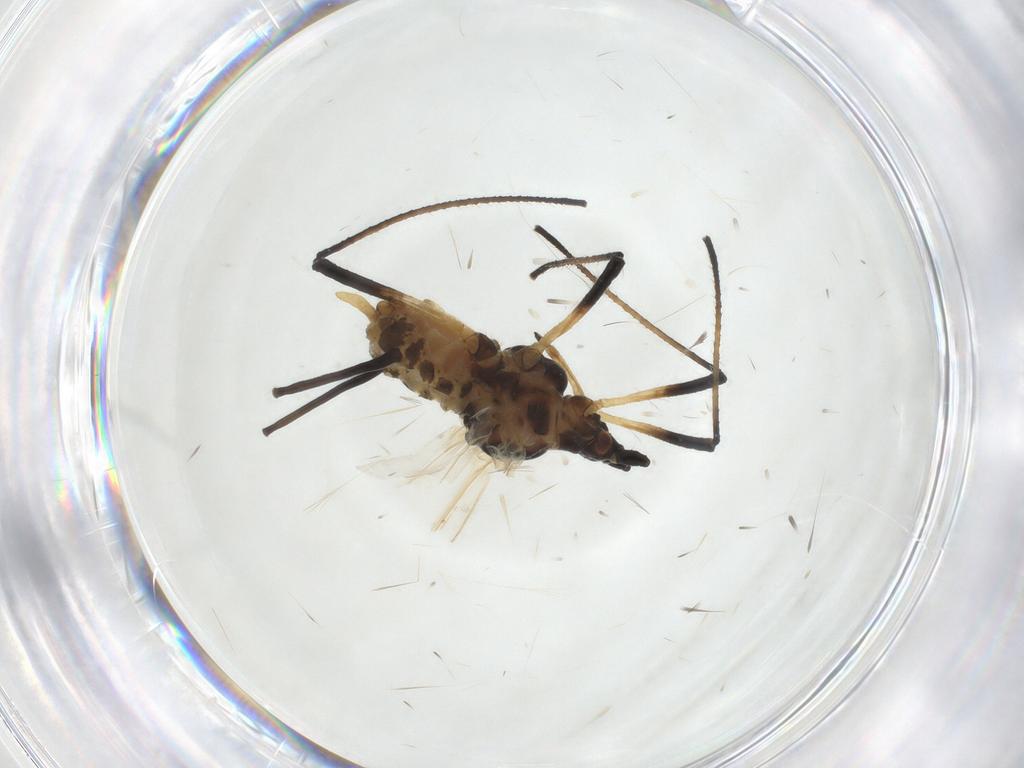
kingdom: Animalia
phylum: Arthropoda
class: Insecta
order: Hemiptera
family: Aphididae
